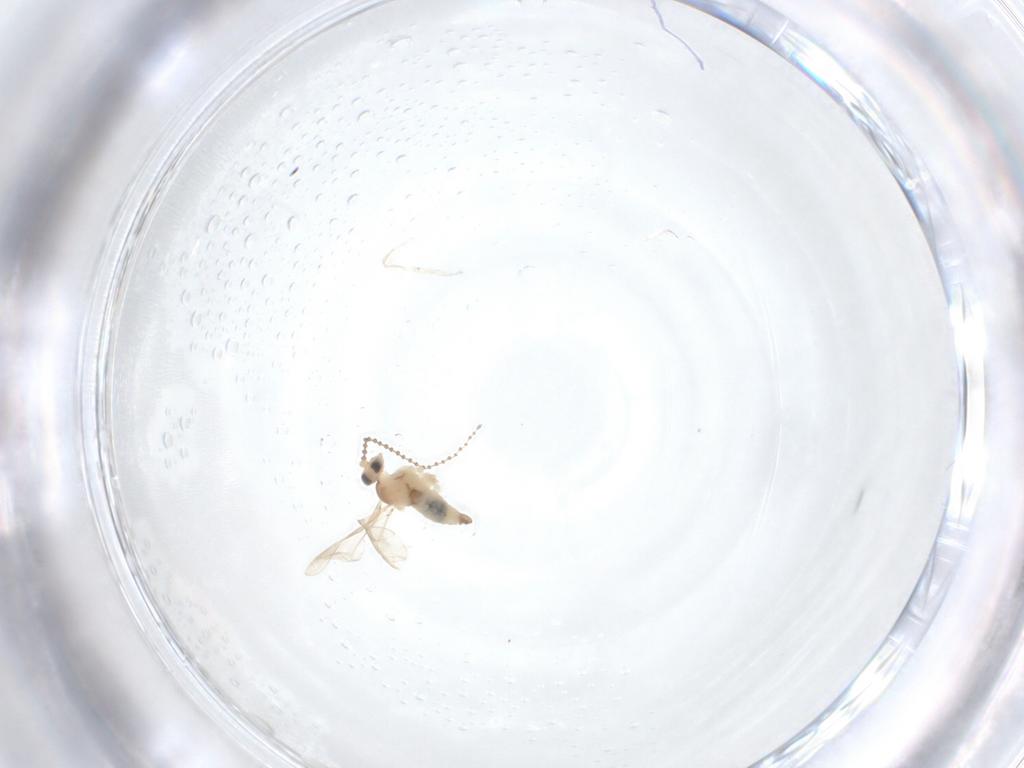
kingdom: Animalia
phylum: Arthropoda
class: Insecta
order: Diptera
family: Cecidomyiidae
